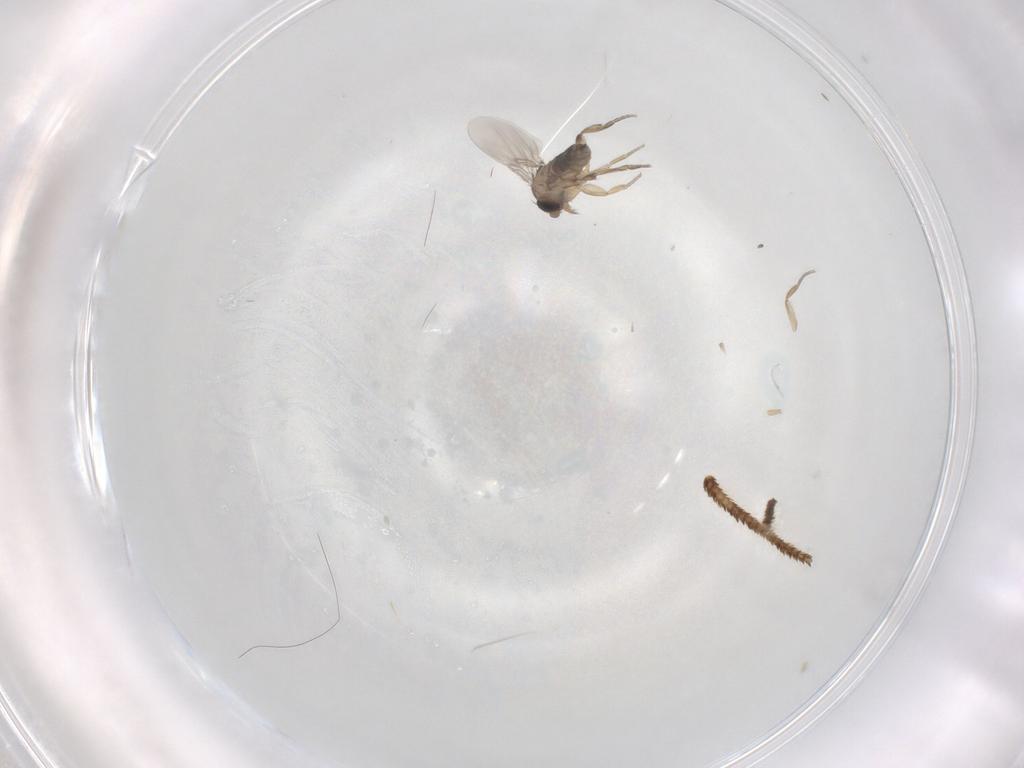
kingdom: Animalia
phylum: Arthropoda
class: Insecta
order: Diptera
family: Phoridae
